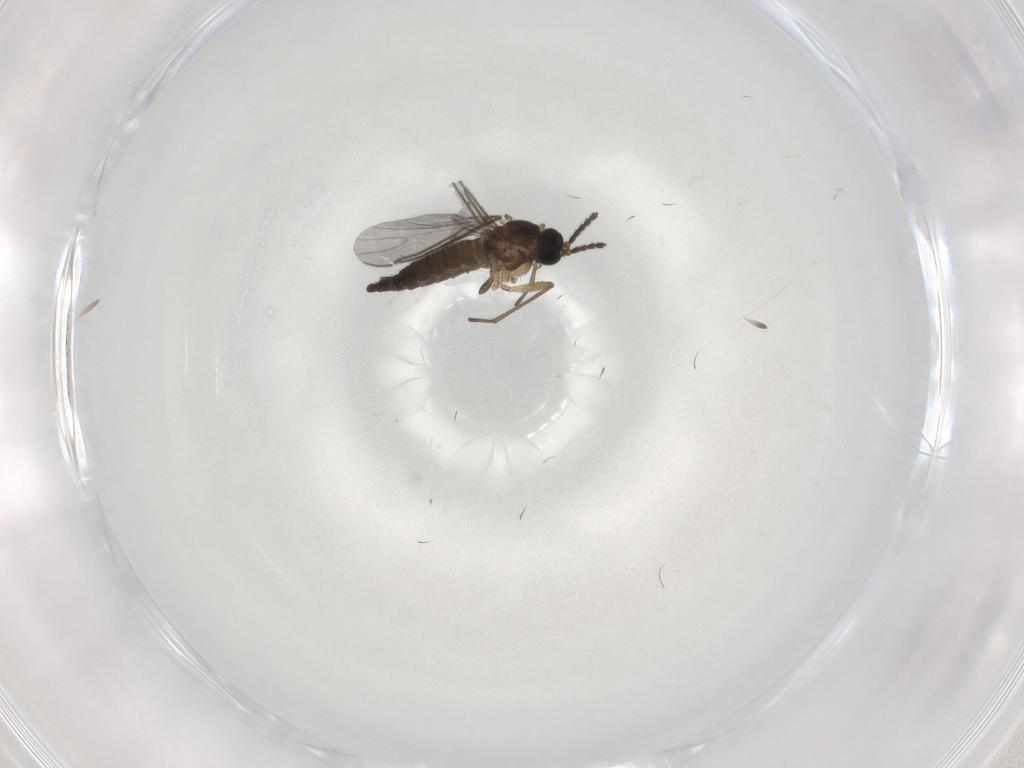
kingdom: Animalia
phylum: Arthropoda
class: Insecta
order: Diptera
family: Sciaridae
